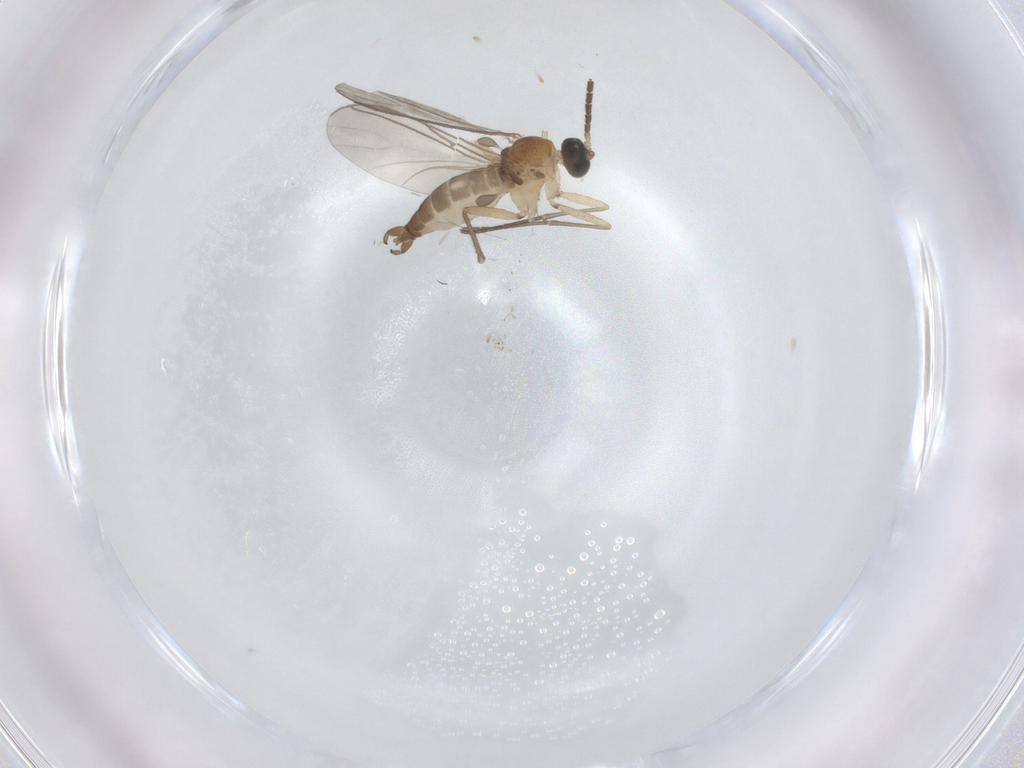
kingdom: Animalia
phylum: Arthropoda
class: Insecta
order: Diptera
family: Sciaridae
